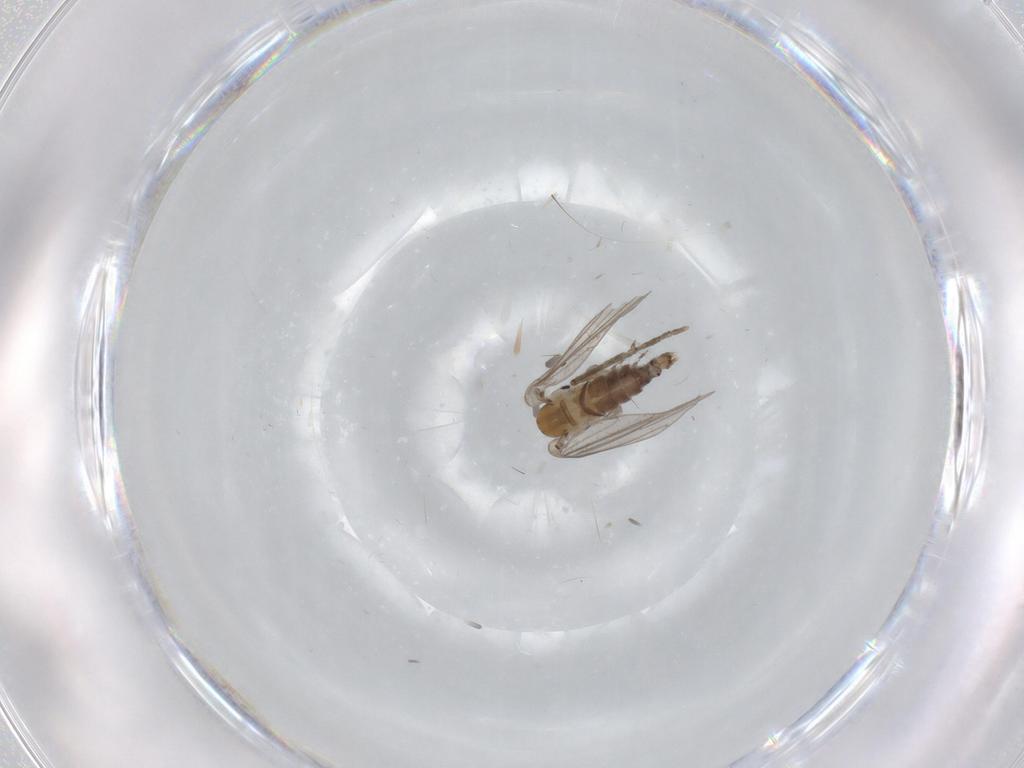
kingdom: Animalia
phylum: Arthropoda
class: Insecta
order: Diptera
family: Psychodidae
